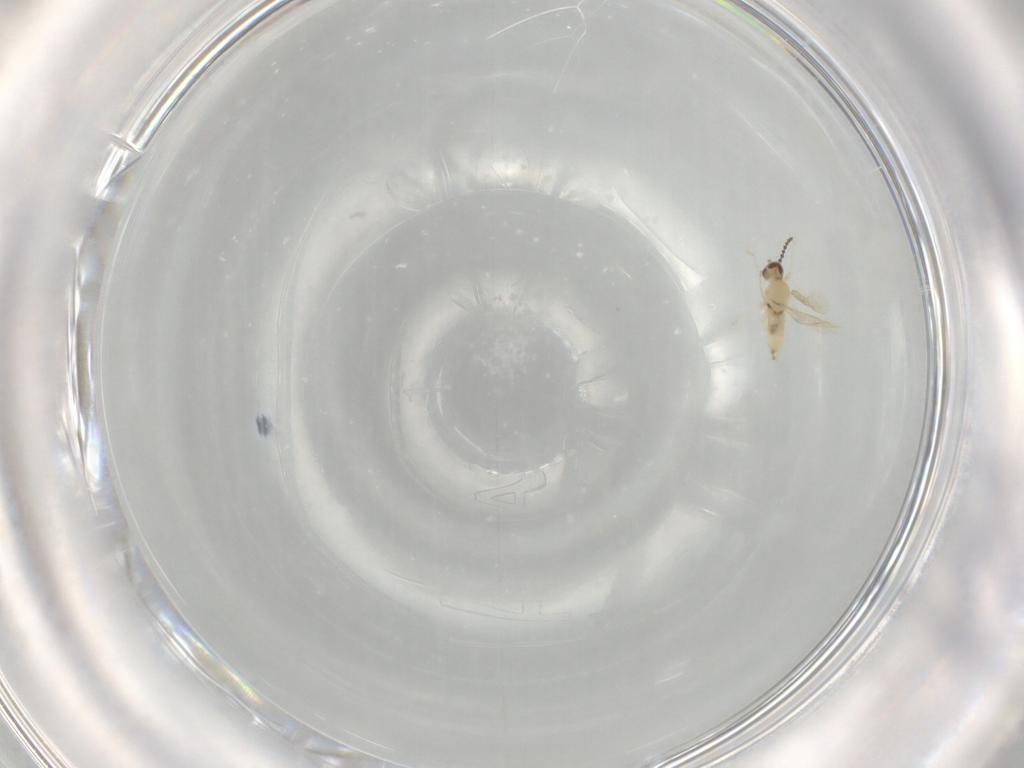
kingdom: Animalia
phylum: Arthropoda
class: Insecta
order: Diptera
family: Cecidomyiidae
